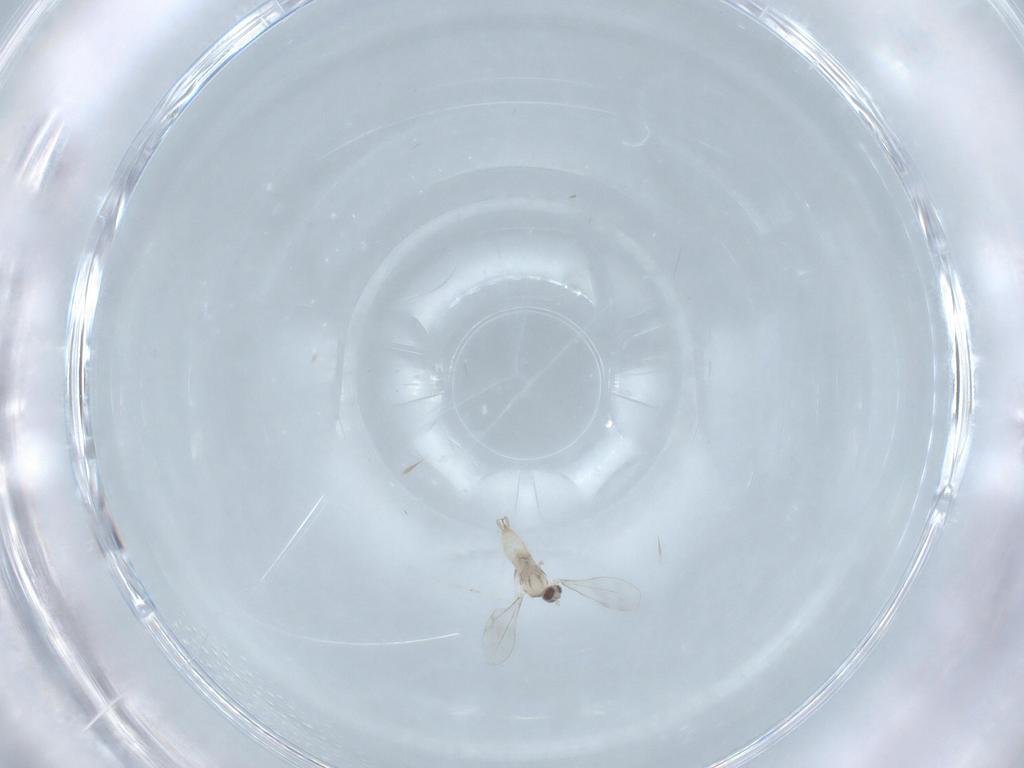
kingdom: Animalia
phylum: Arthropoda
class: Insecta
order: Diptera
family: Cecidomyiidae
